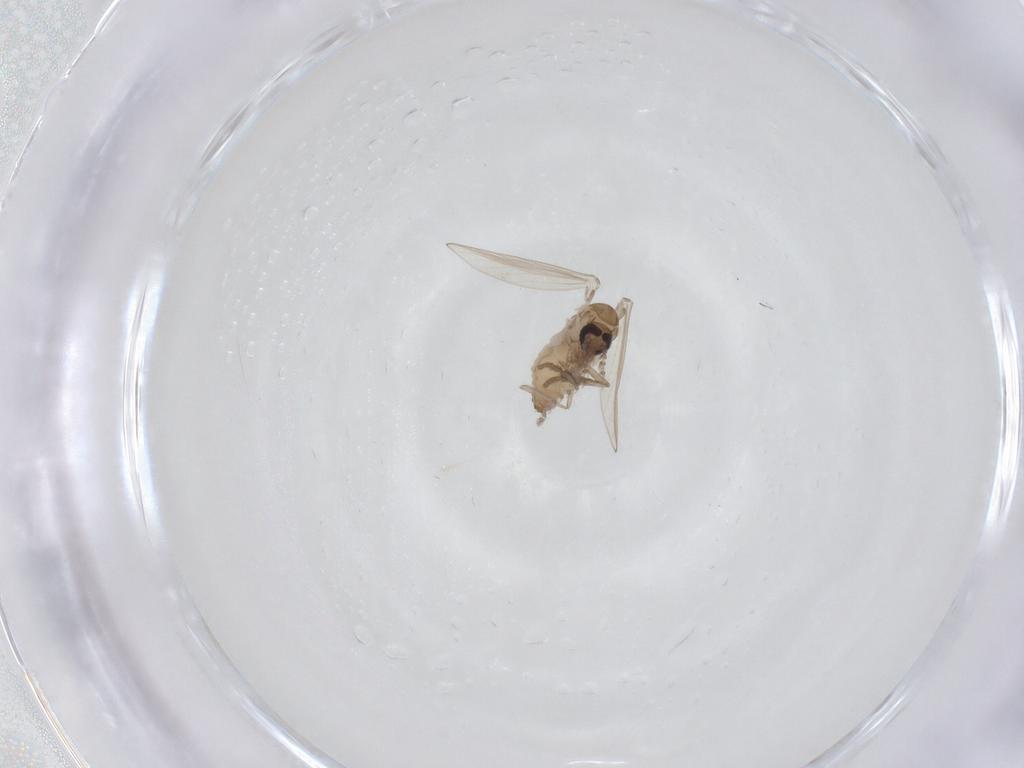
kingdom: Animalia
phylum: Arthropoda
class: Insecta
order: Diptera
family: Psychodidae
